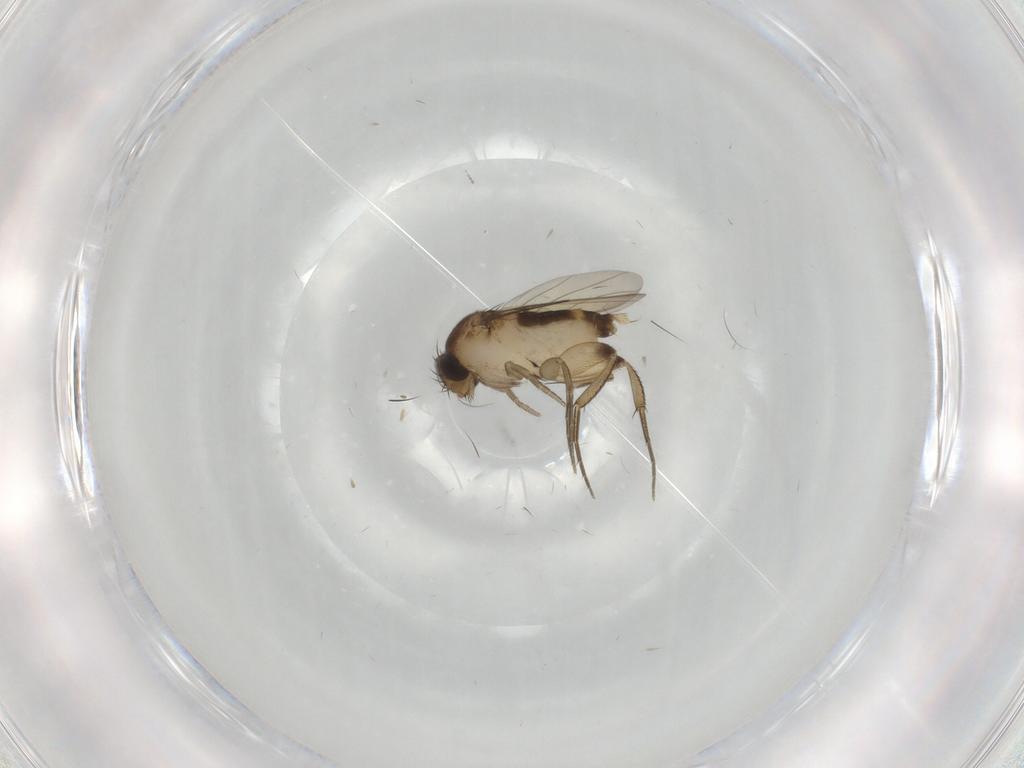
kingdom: Animalia
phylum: Arthropoda
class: Insecta
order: Diptera
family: Phoridae
